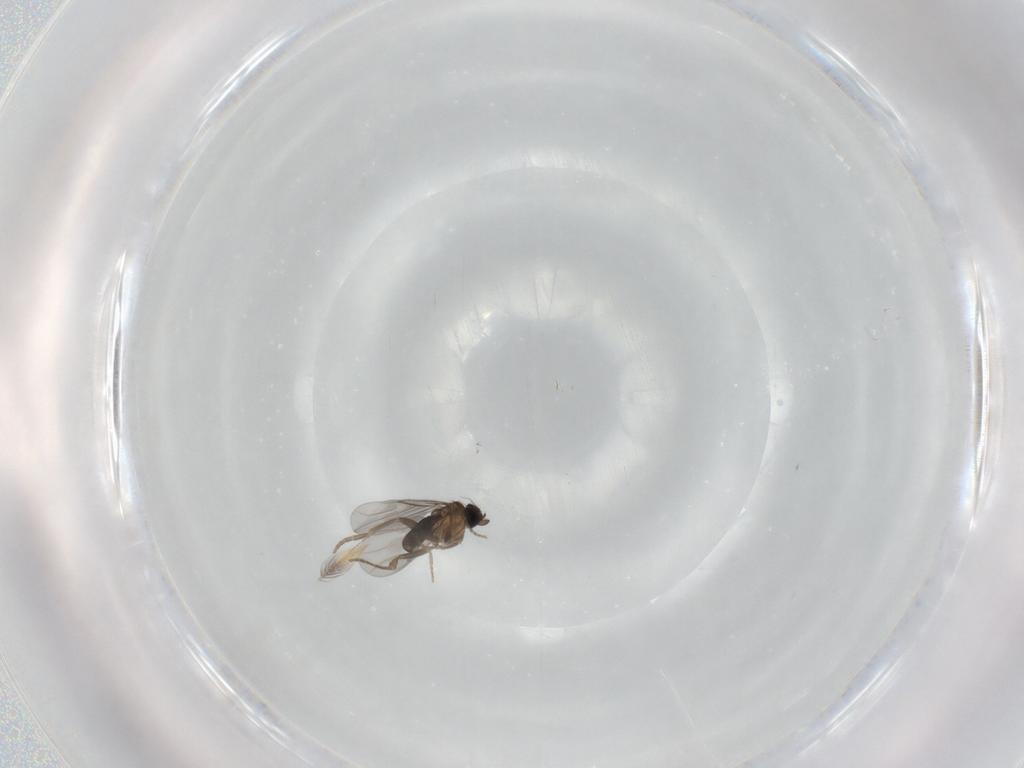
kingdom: Animalia
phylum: Arthropoda
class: Insecta
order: Diptera
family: Ceratopogonidae
